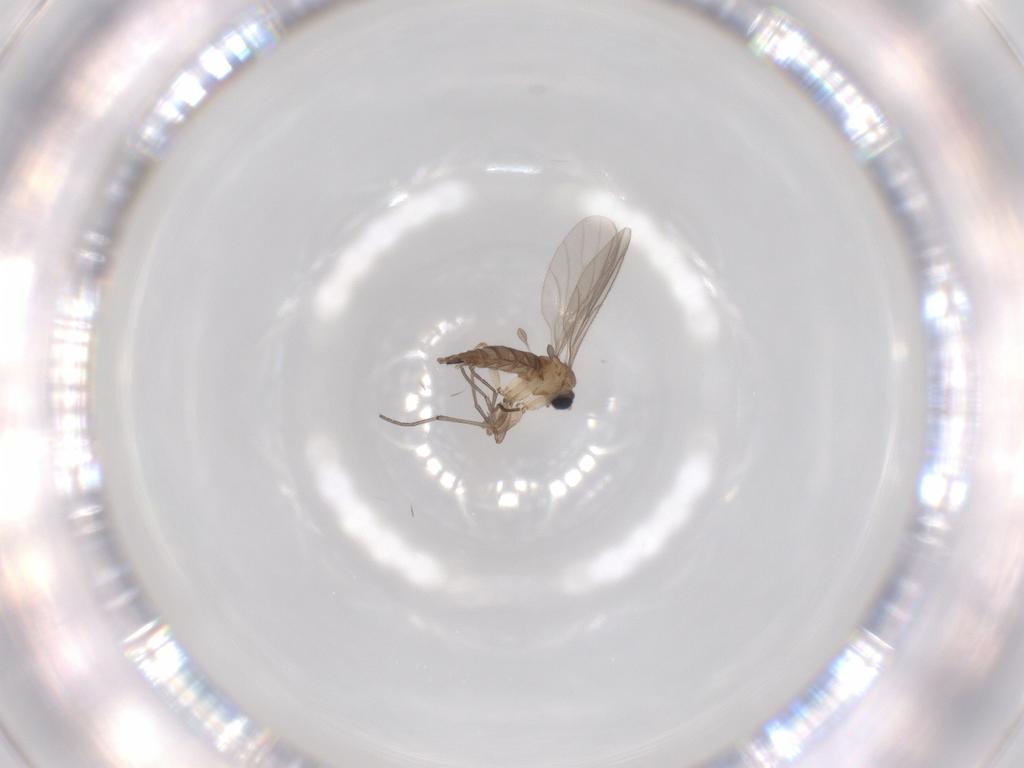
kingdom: Animalia
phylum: Arthropoda
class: Insecta
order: Diptera
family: Sciaridae
